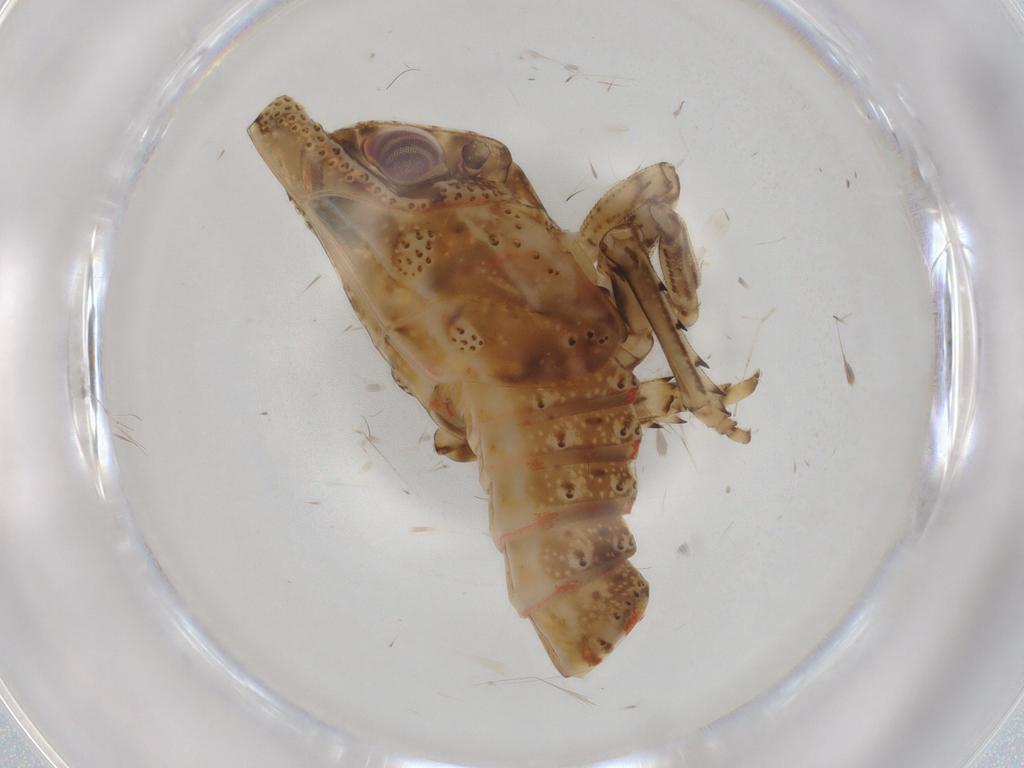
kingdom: Animalia
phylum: Arthropoda
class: Insecta
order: Hemiptera
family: Fulgoroidea_incertae_sedis
